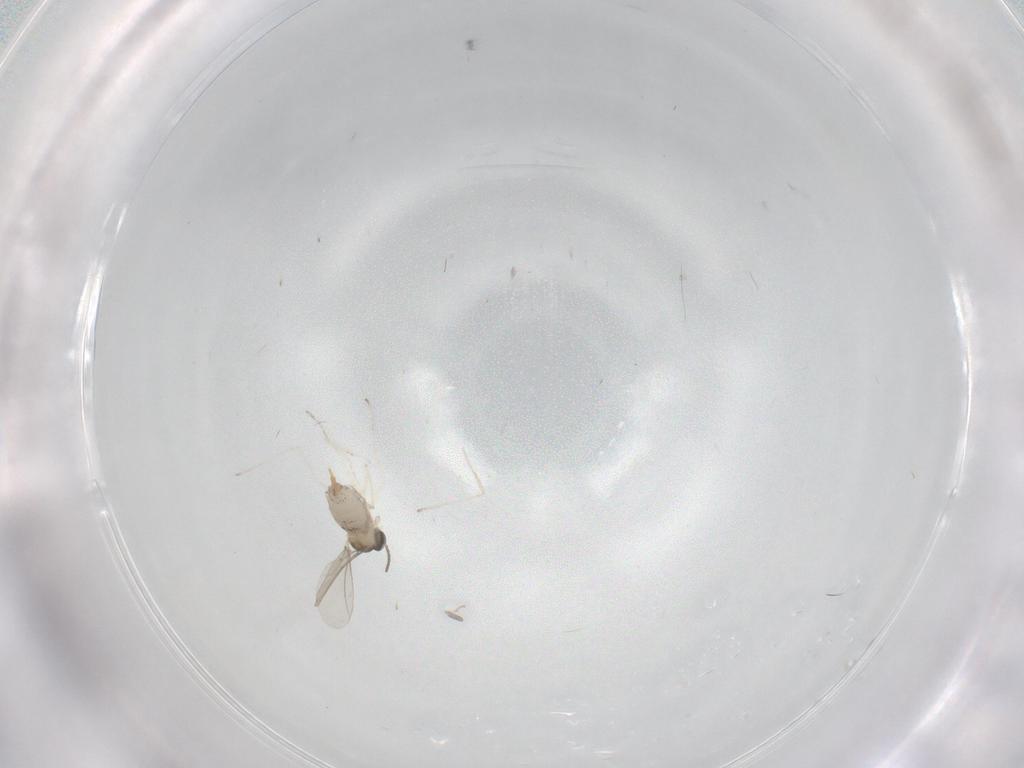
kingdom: Animalia
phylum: Arthropoda
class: Insecta
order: Diptera
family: Cecidomyiidae
